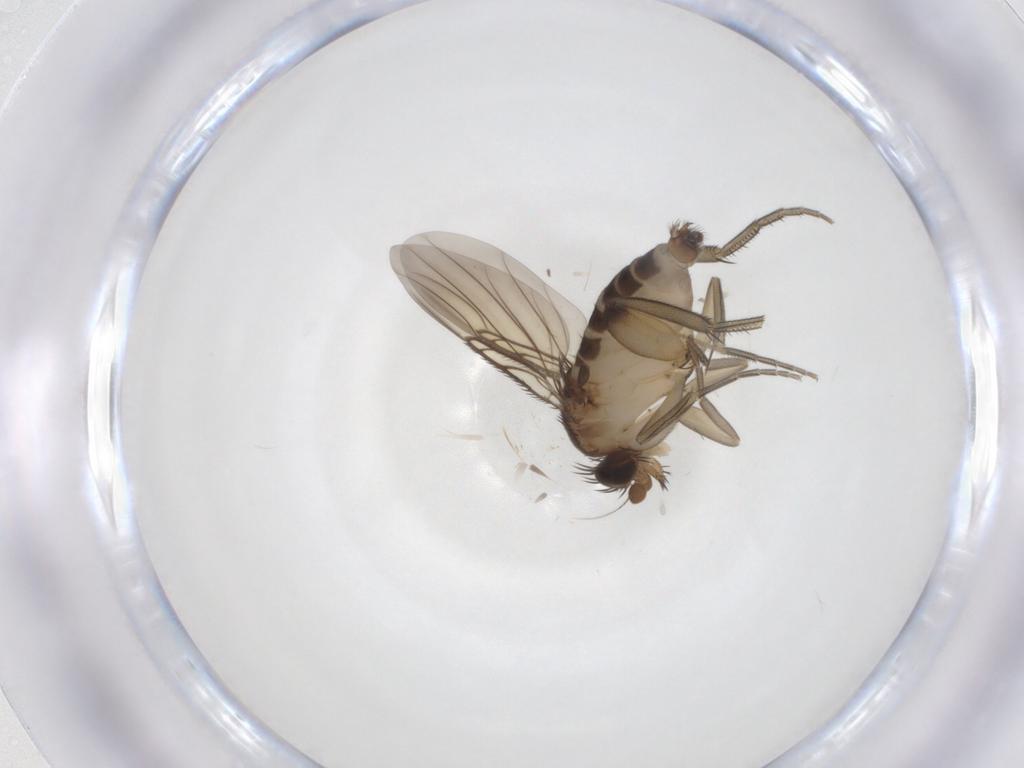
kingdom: Animalia
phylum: Arthropoda
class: Insecta
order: Diptera
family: Phoridae
